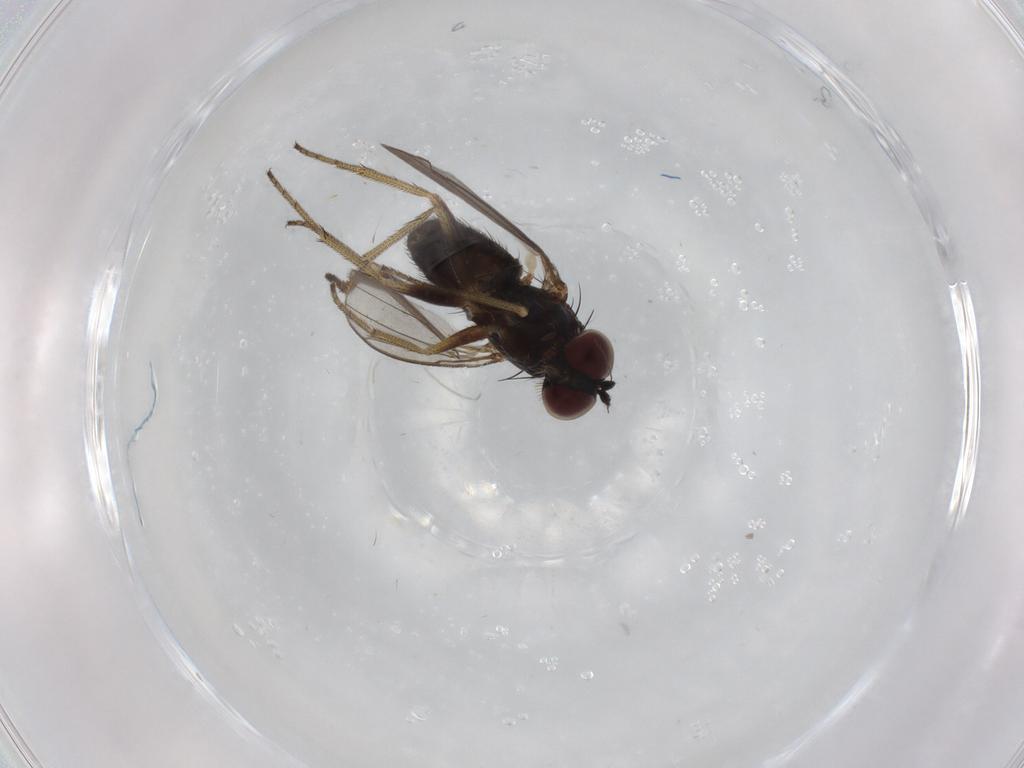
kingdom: Animalia
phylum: Arthropoda
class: Insecta
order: Diptera
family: Dolichopodidae
